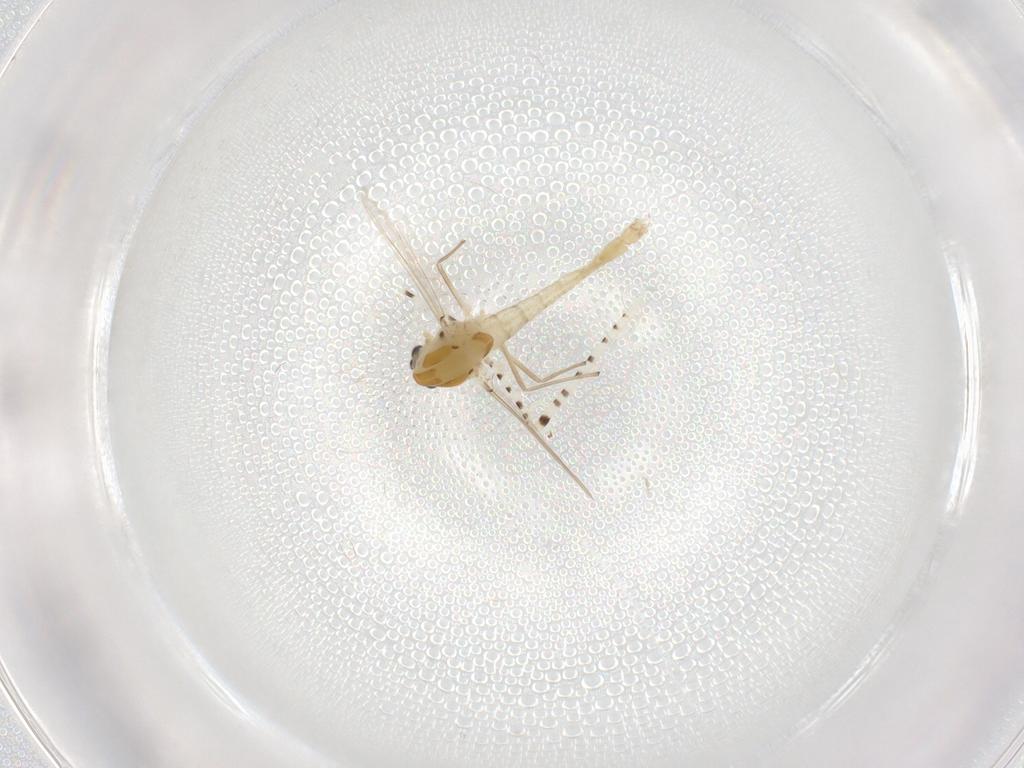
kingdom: Animalia
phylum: Arthropoda
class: Insecta
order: Diptera
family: Chironomidae
